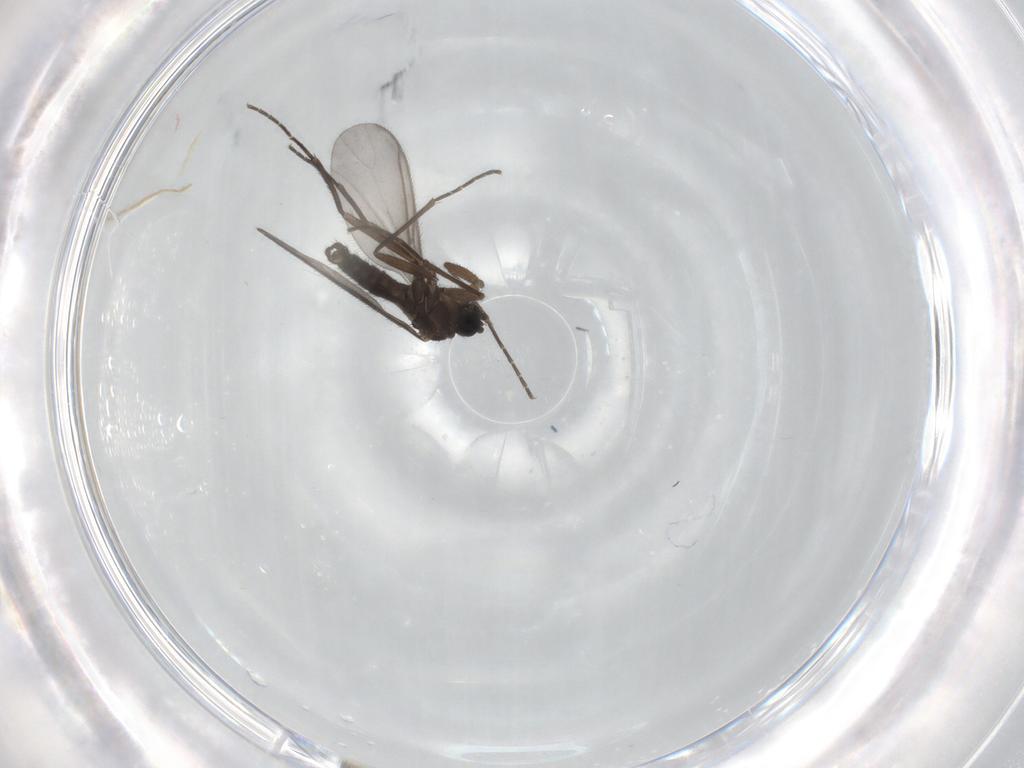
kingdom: Animalia
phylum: Arthropoda
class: Insecta
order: Diptera
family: Sciaridae
